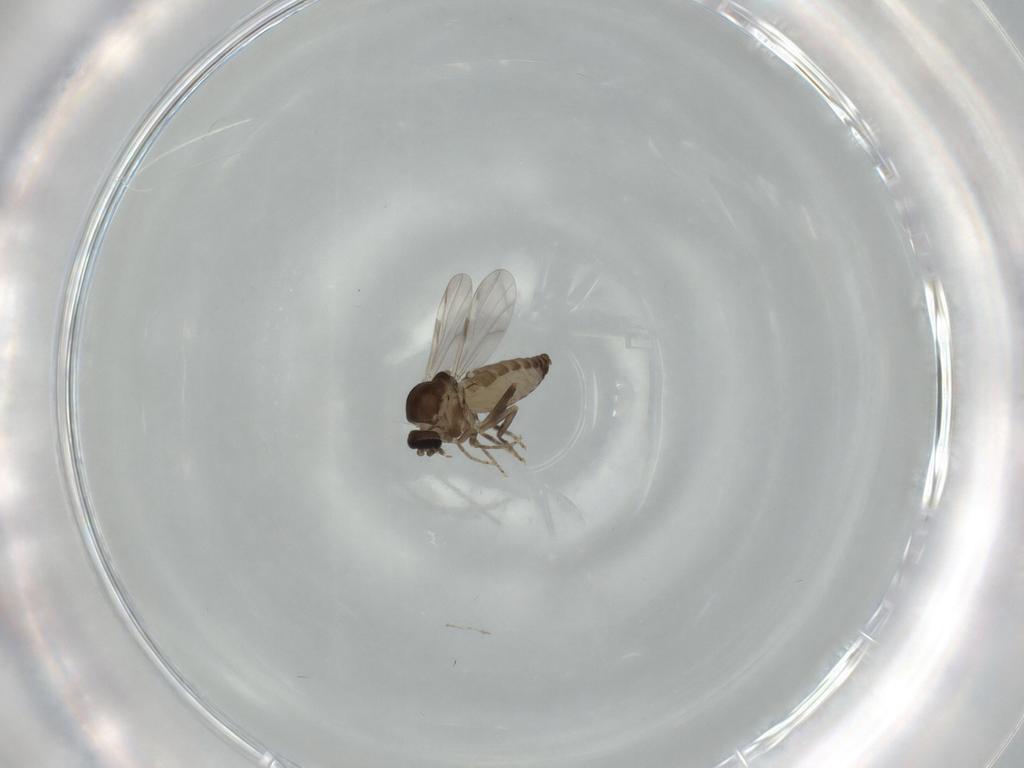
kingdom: Animalia
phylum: Arthropoda
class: Insecta
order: Diptera
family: Ceratopogonidae
